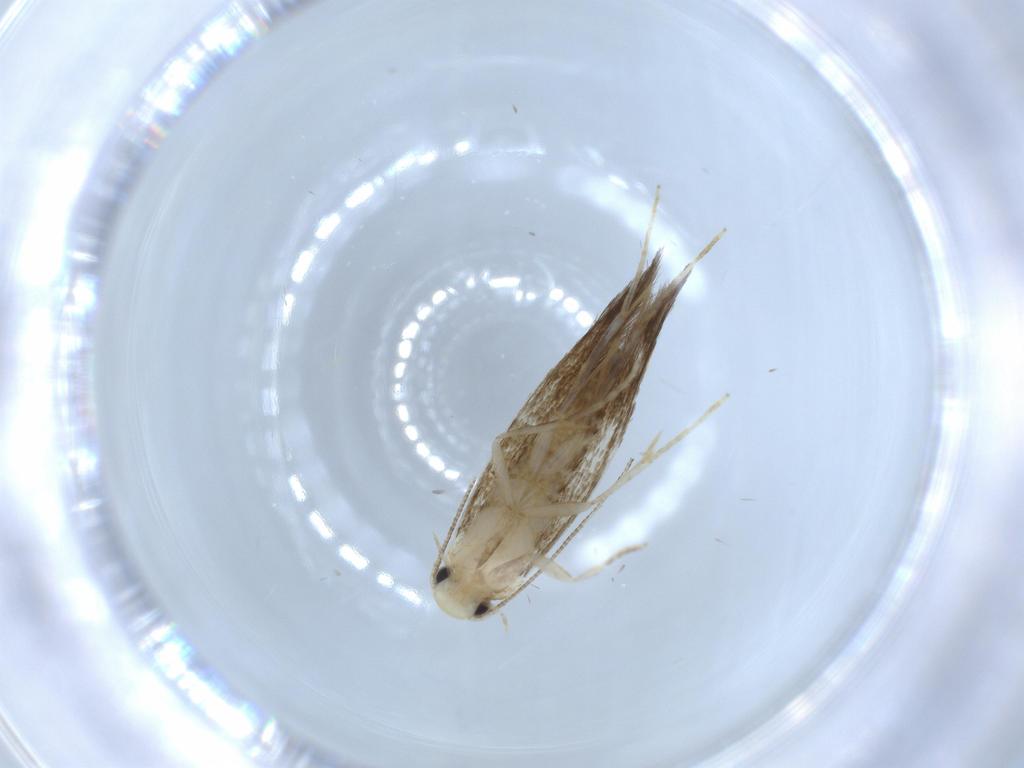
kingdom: Animalia
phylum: Arthropoda
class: Insecta
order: Lepidoptera
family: Tineidae
